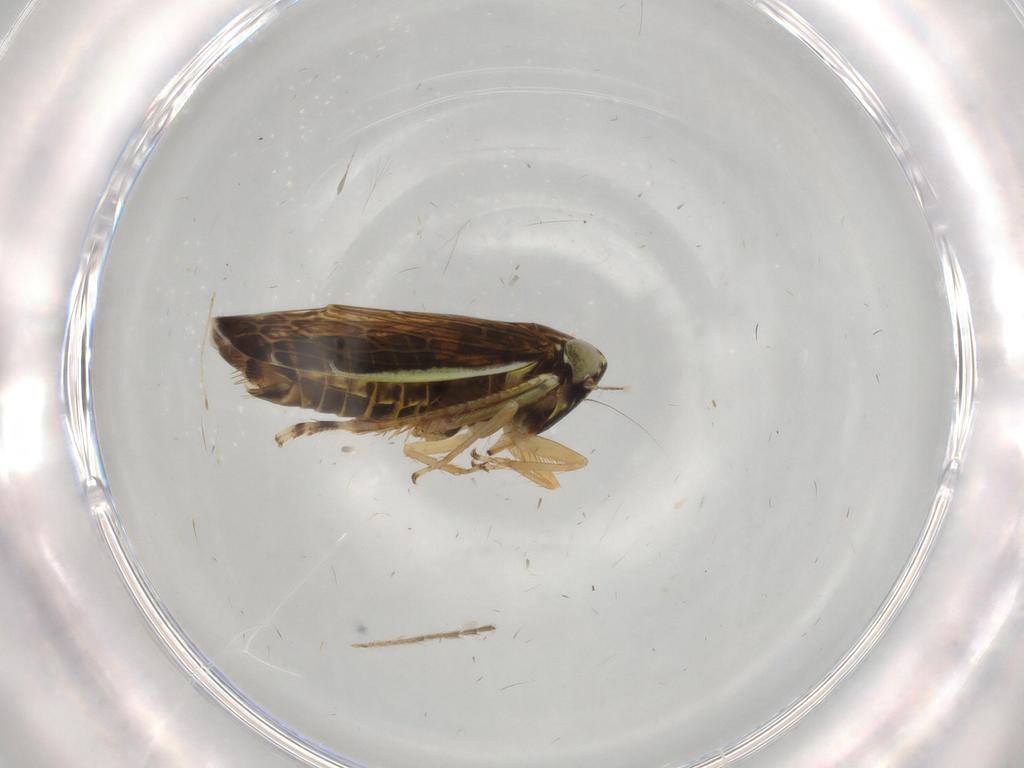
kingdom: Animalia
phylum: Arthropoda
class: Insecta
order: Hemiptera
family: Cicadellidae
